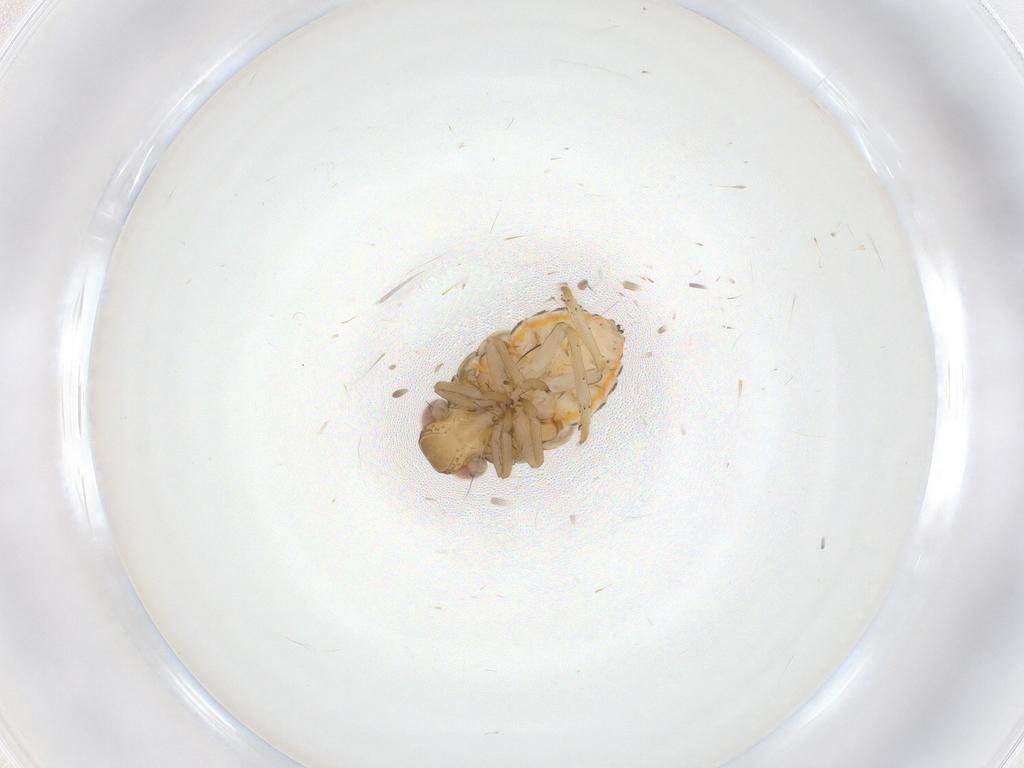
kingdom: Animalia
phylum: Arthropoda
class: Insecta
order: Hemiptera
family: Issidae
